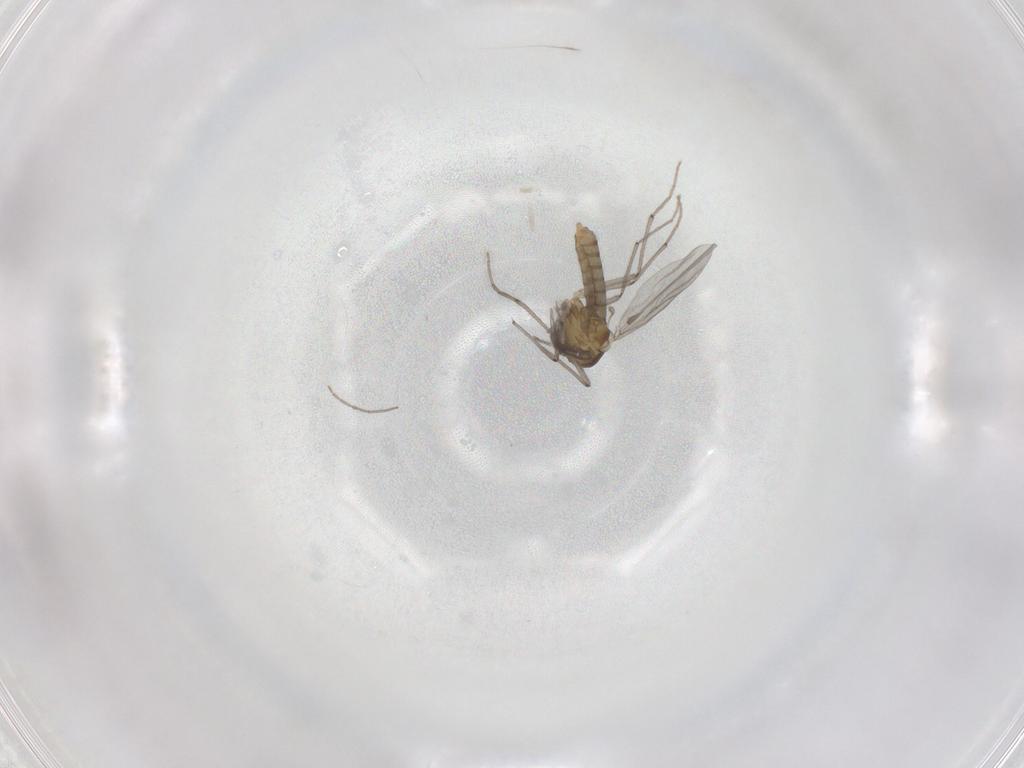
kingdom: Animalia
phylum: Arthropoda
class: Insecta
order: Diptera
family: Chironomidae
